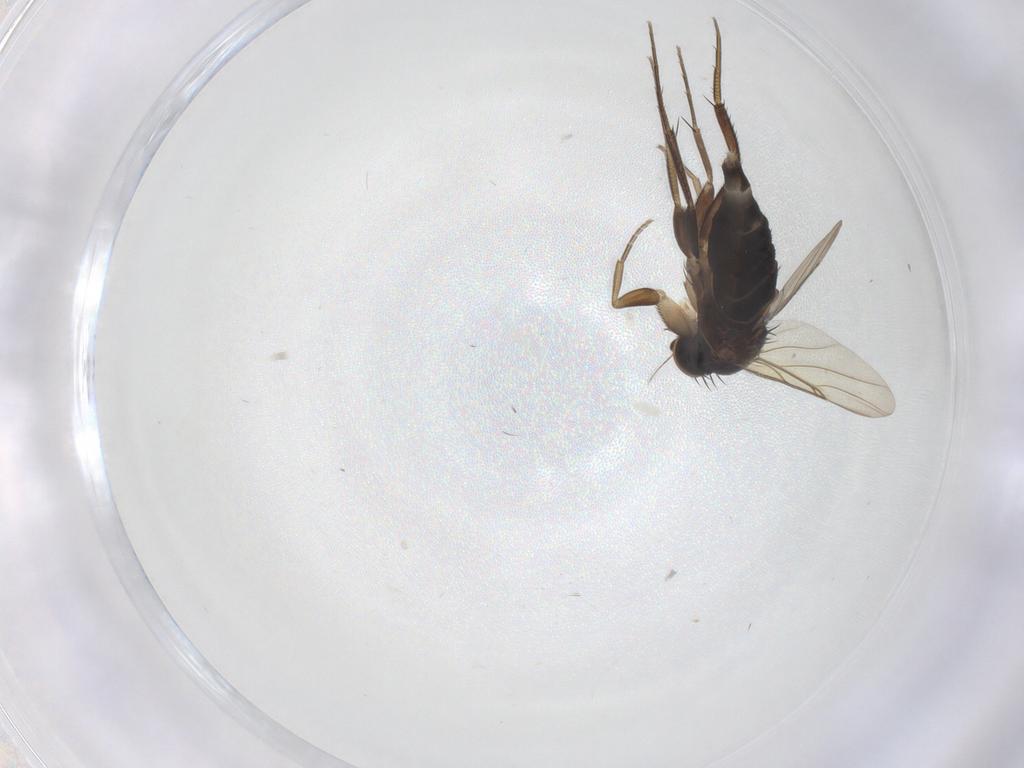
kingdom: Animalia
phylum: Arthropoda
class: Insecta
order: Diptera
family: Phoridae
